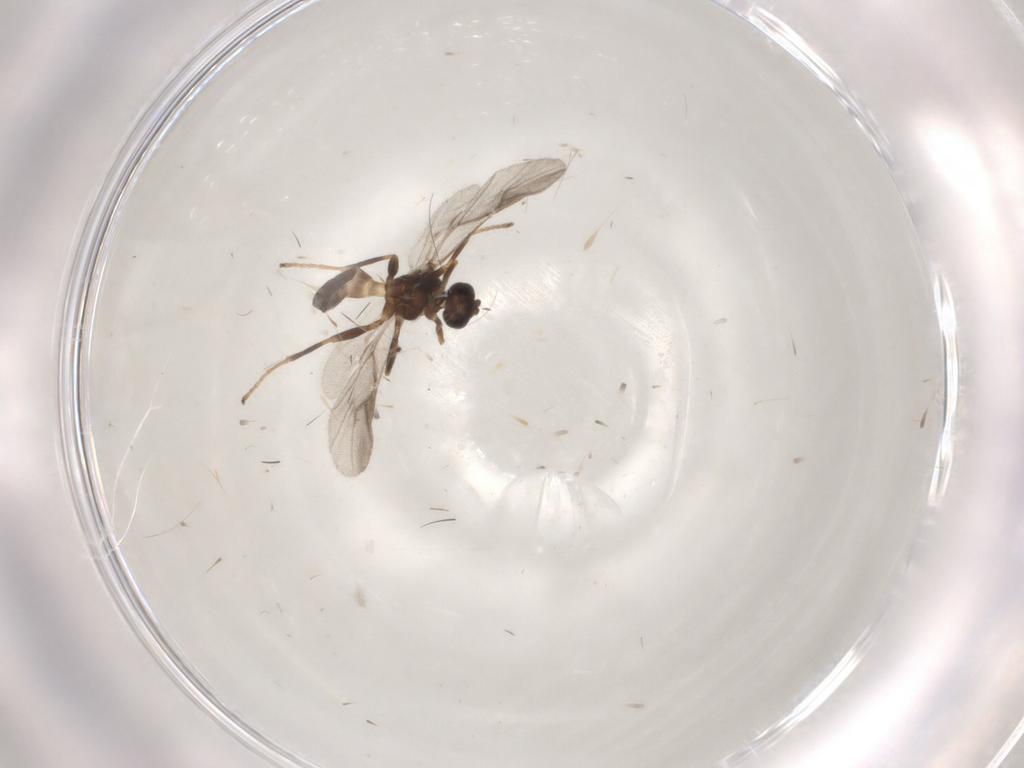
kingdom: Animalia
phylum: Arthropoda
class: Insecta
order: Hymenoptera
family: Braconidae
